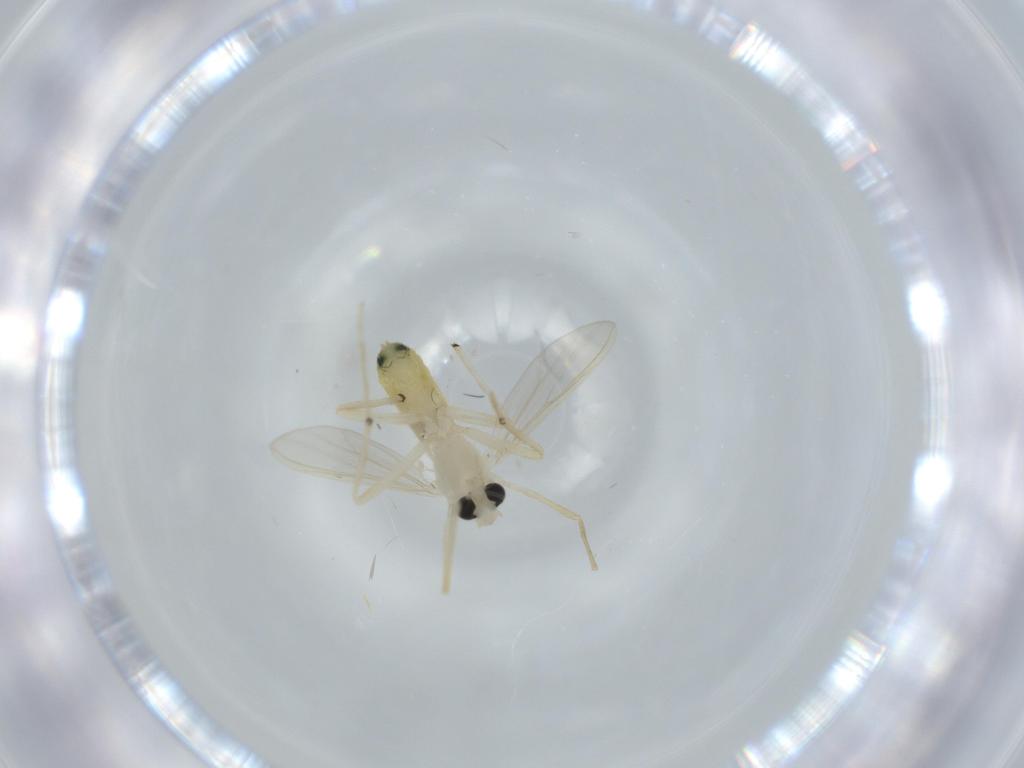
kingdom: Animalia
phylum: Arthropoda
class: Insecta
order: Diptera
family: Chironomidae
